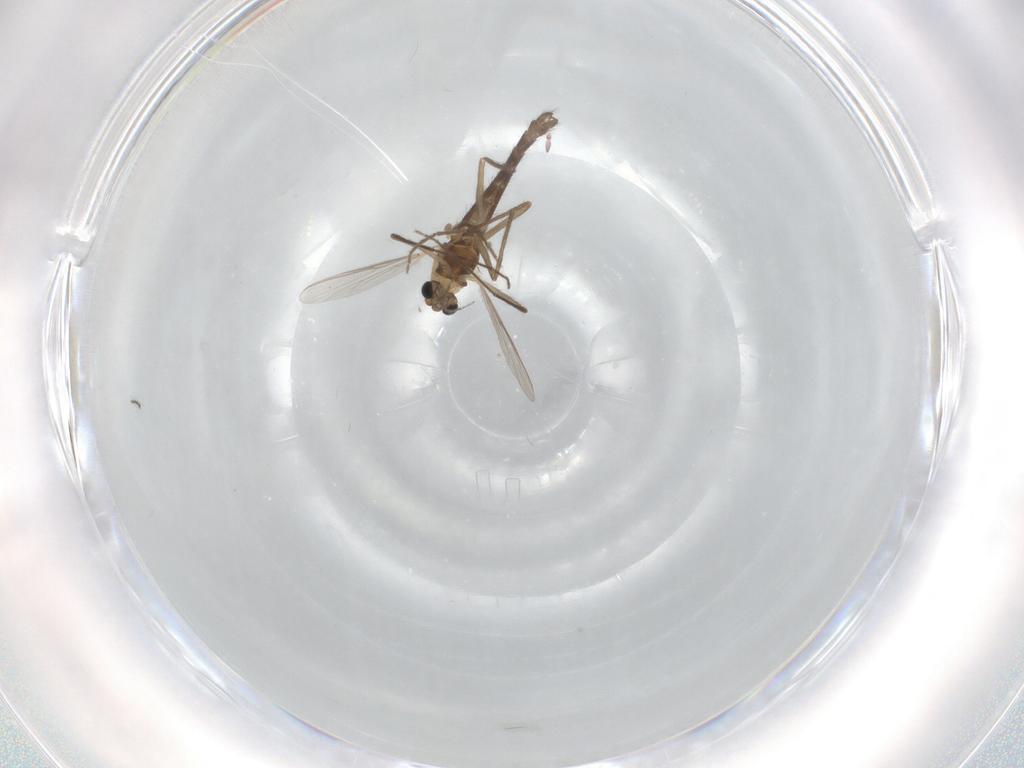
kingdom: Animalia
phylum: Arthropoda
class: Insecta
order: Diptera
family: Chironomidae
